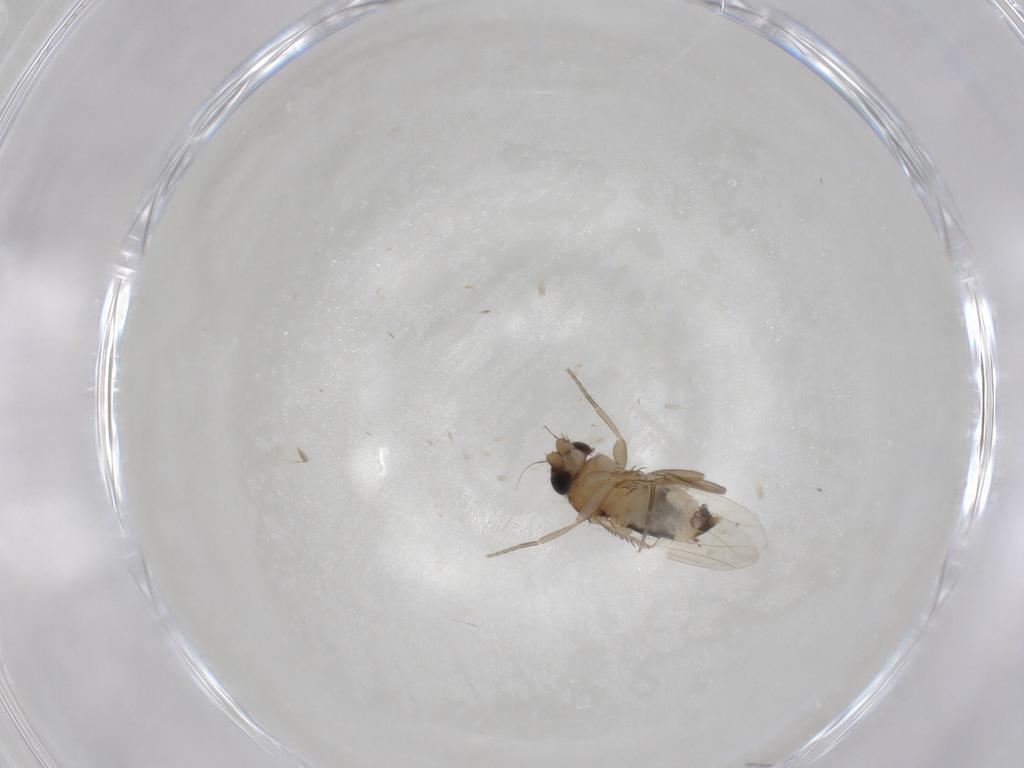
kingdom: Animalia
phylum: Arthropoda
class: Insecta
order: Diptera
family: Phoridae
